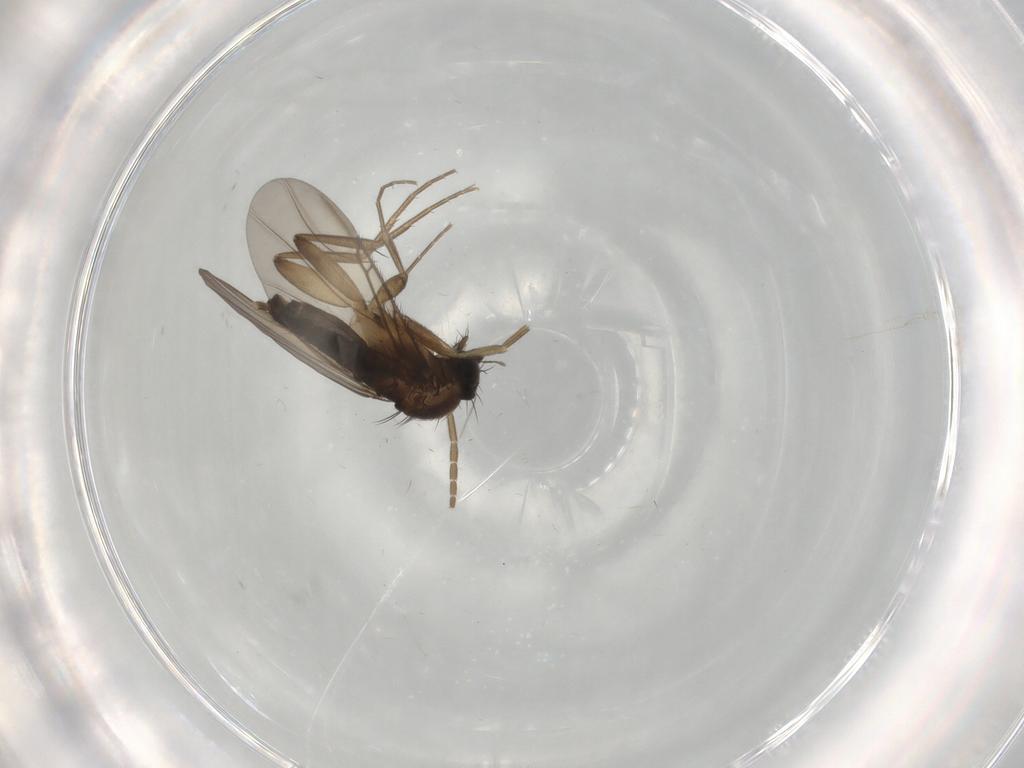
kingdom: Animalia
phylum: Arthropoda
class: Insecta
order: Diptera
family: Phoridae
